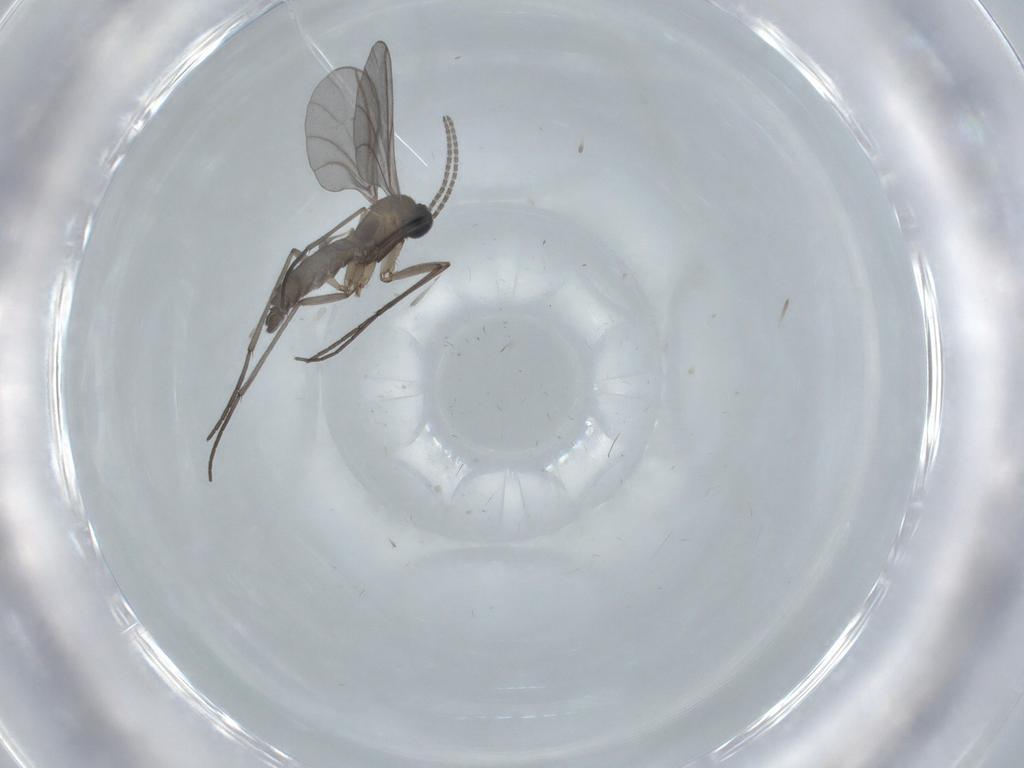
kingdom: Animalia
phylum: Arthropoda
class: Insecta
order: Diptera
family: Sciaridae
